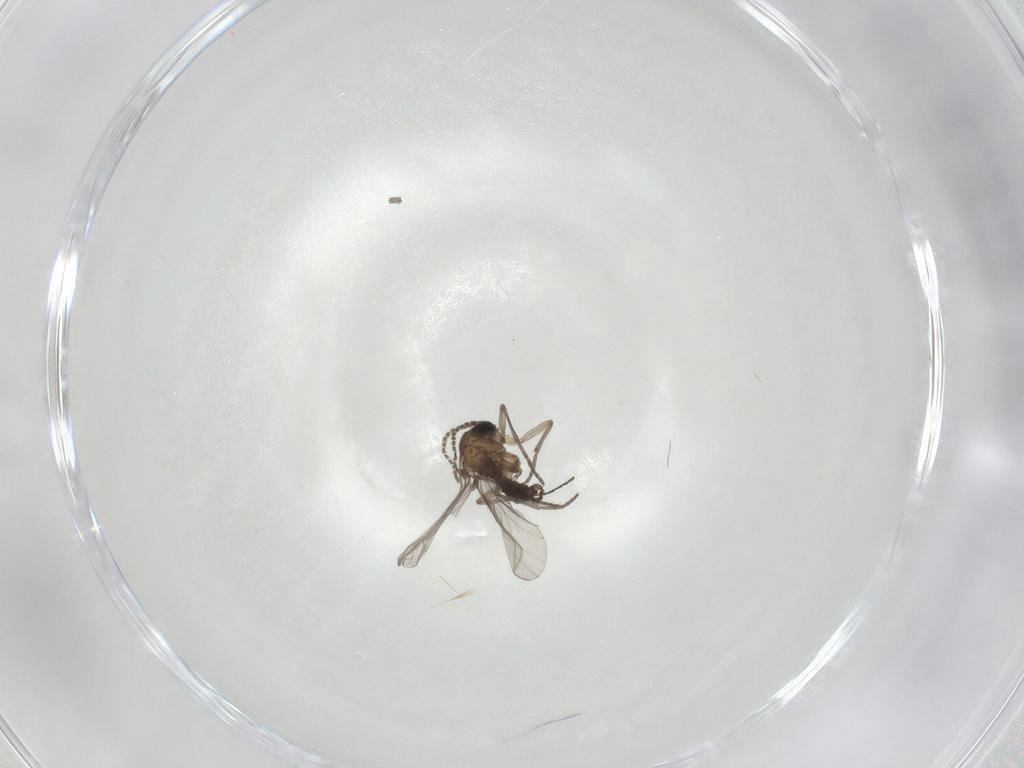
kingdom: Animalia
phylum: Arthropoda
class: Insecta
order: Diptera
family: Sciaridae
